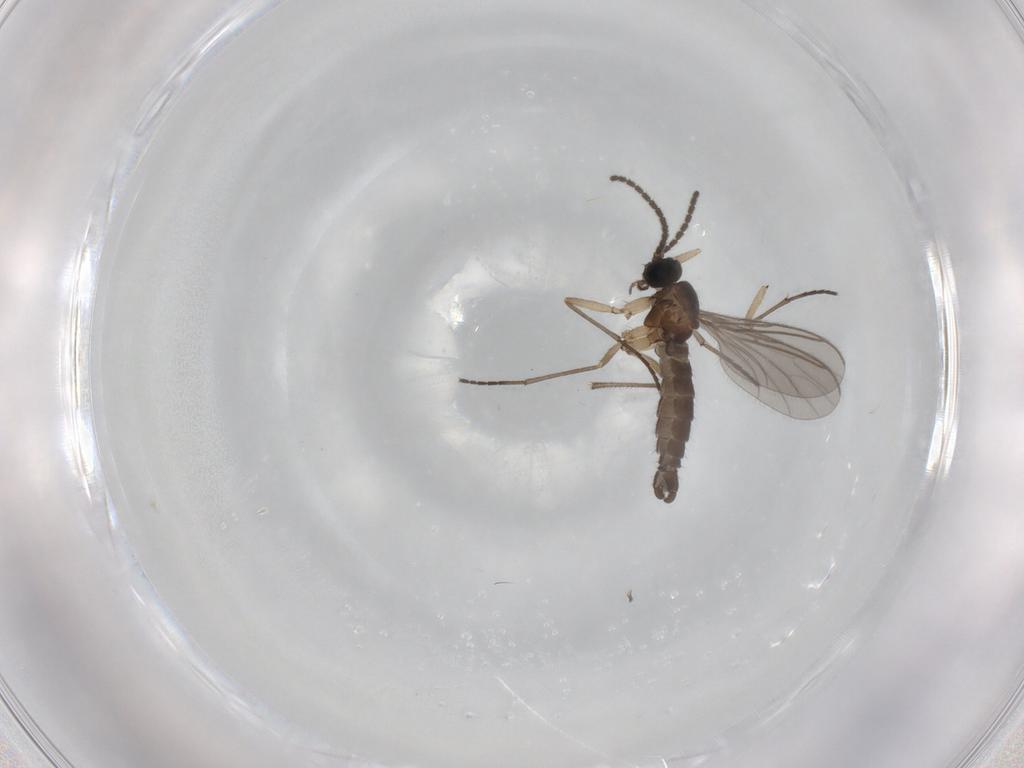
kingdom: Animalia
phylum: Arthropoda
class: Insecta
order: Diptera
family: Sciaridae
